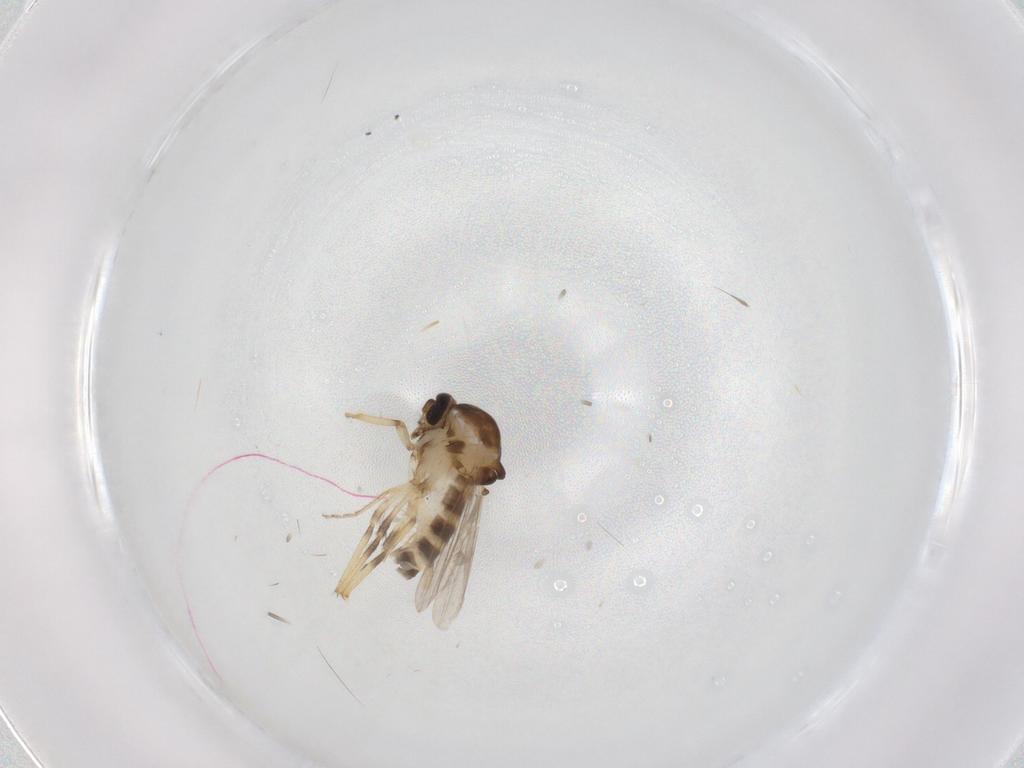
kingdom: Animalia
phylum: Arthropoda
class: Insecta
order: Diptera
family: Ceratopogonidae
